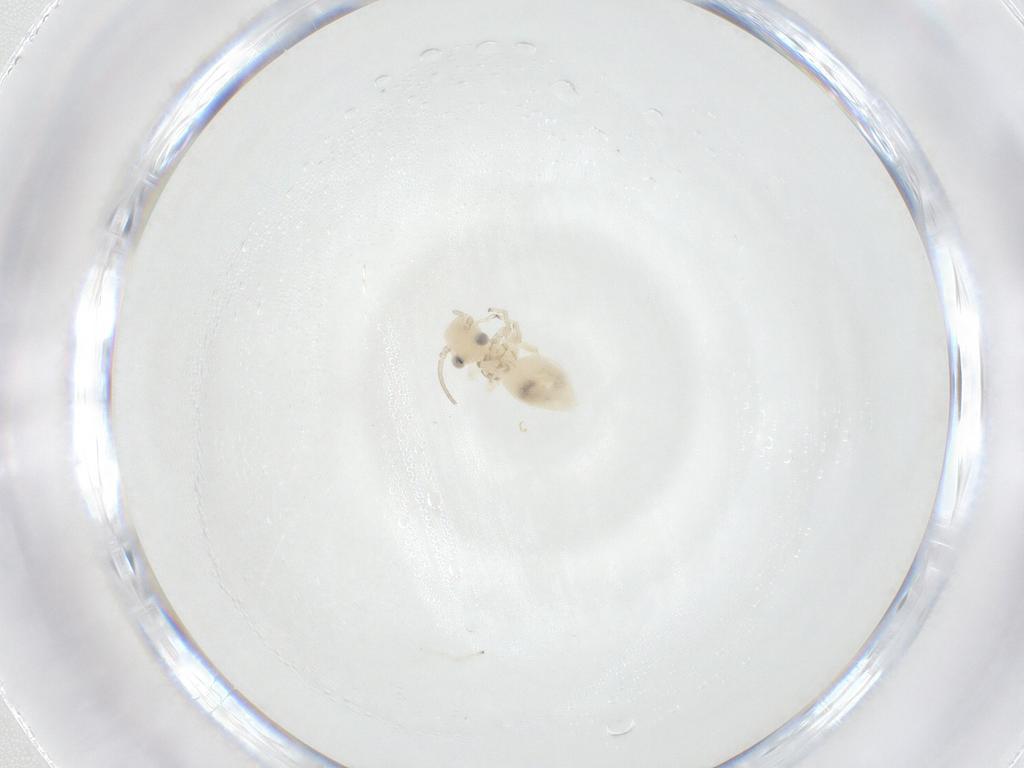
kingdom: Animalia
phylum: Arthropoda
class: Insecta
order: Psocodea
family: Caeciliusidae
